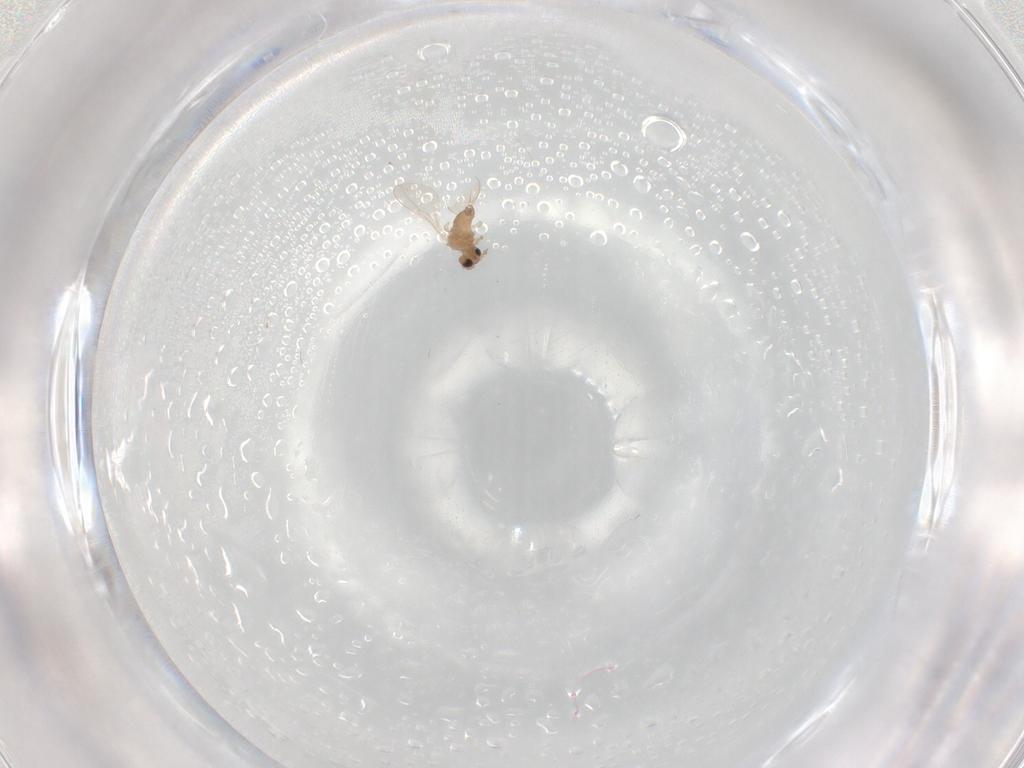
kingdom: Animalia
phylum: Arthropoda
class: Insecta
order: Diptera
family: Cecidomyiidae
